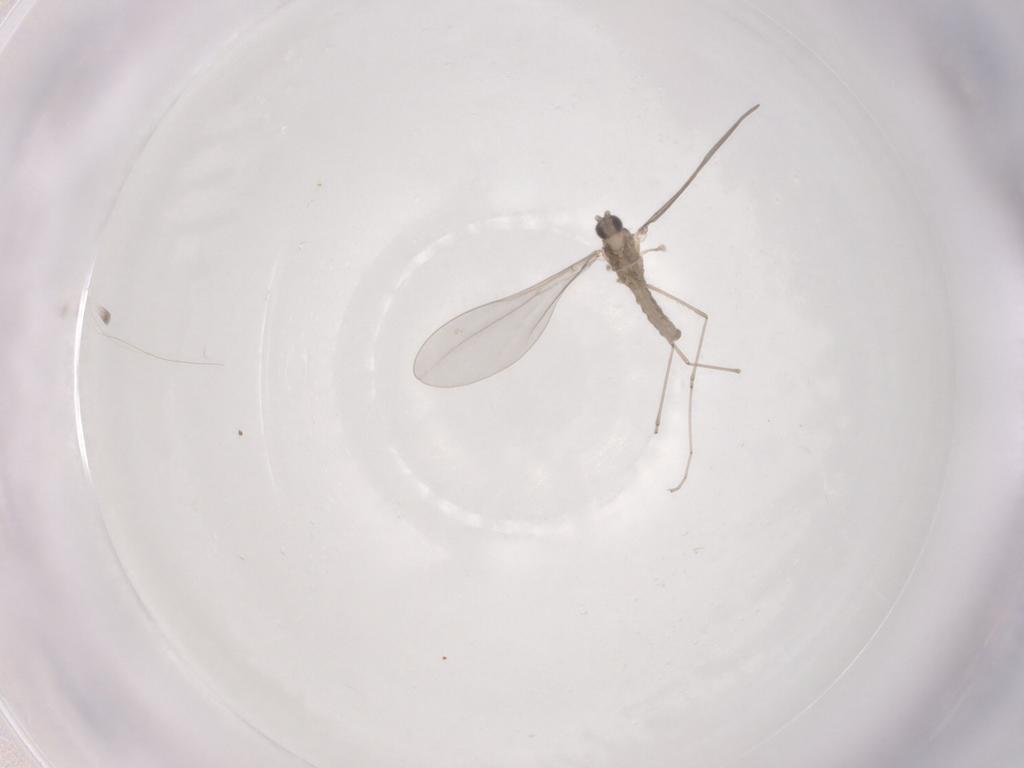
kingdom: Animalia
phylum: Arthropoda
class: Insecta
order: Diptera
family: Cecidomyiidae
